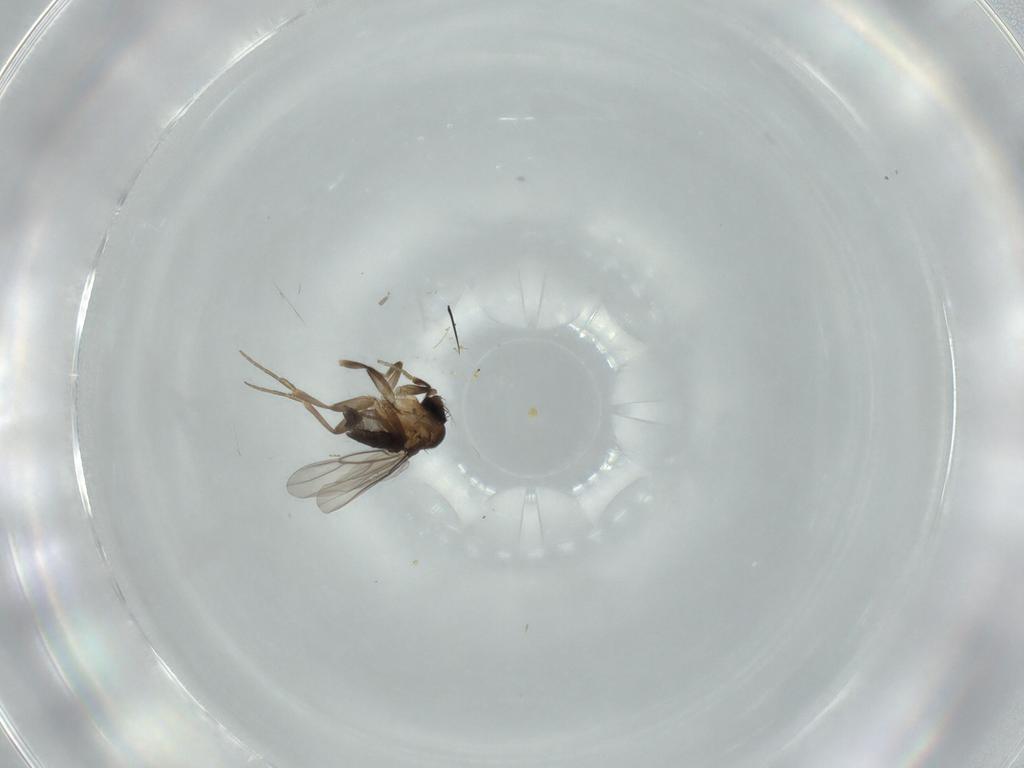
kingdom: Animalia
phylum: Arthropoda
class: Insecta
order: Diptera
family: Phoridae
